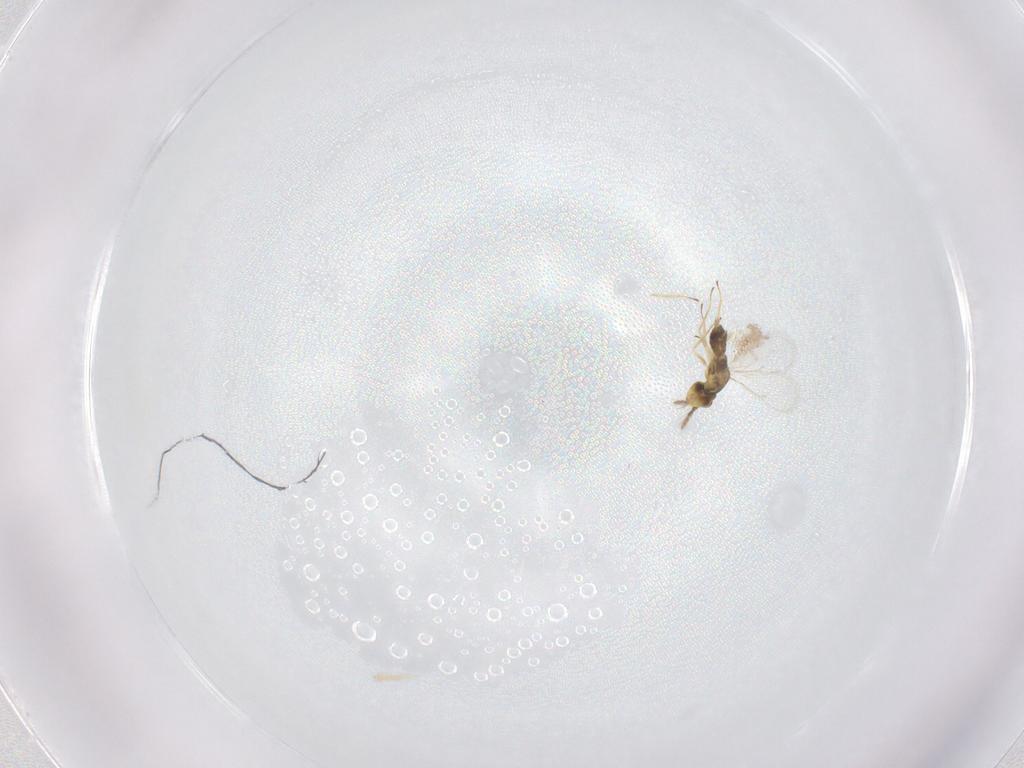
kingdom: Animalia
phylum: Arthropoda
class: Insecta
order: Hymenoptera
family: Eulophidae
